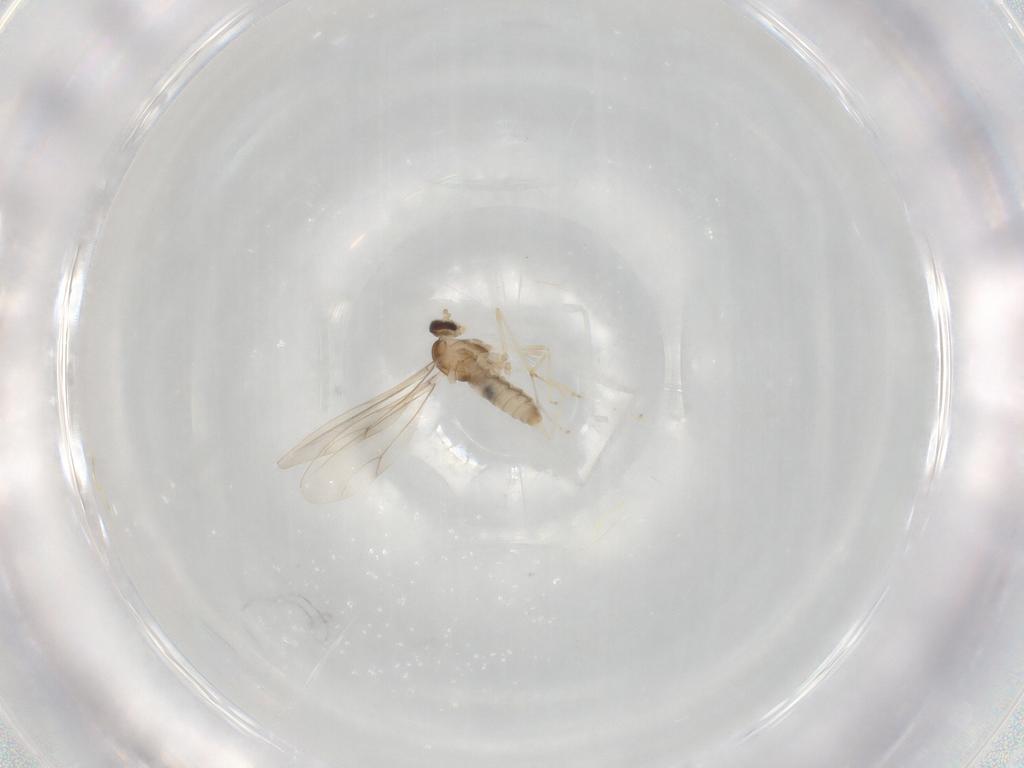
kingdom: Animalia
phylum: Arthropoda
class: Insecta
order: Diptera
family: Cecidomyiidae
